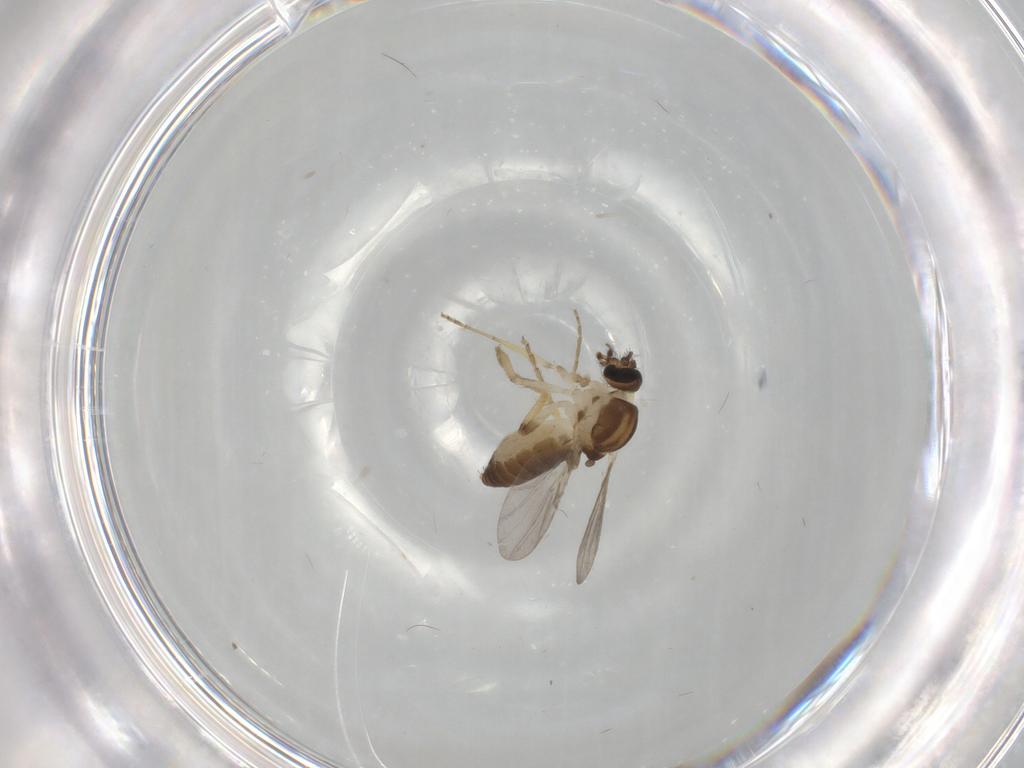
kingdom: Animalia
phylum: Arthropoda
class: Insecta
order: Diptera
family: Ceratopogonidae
